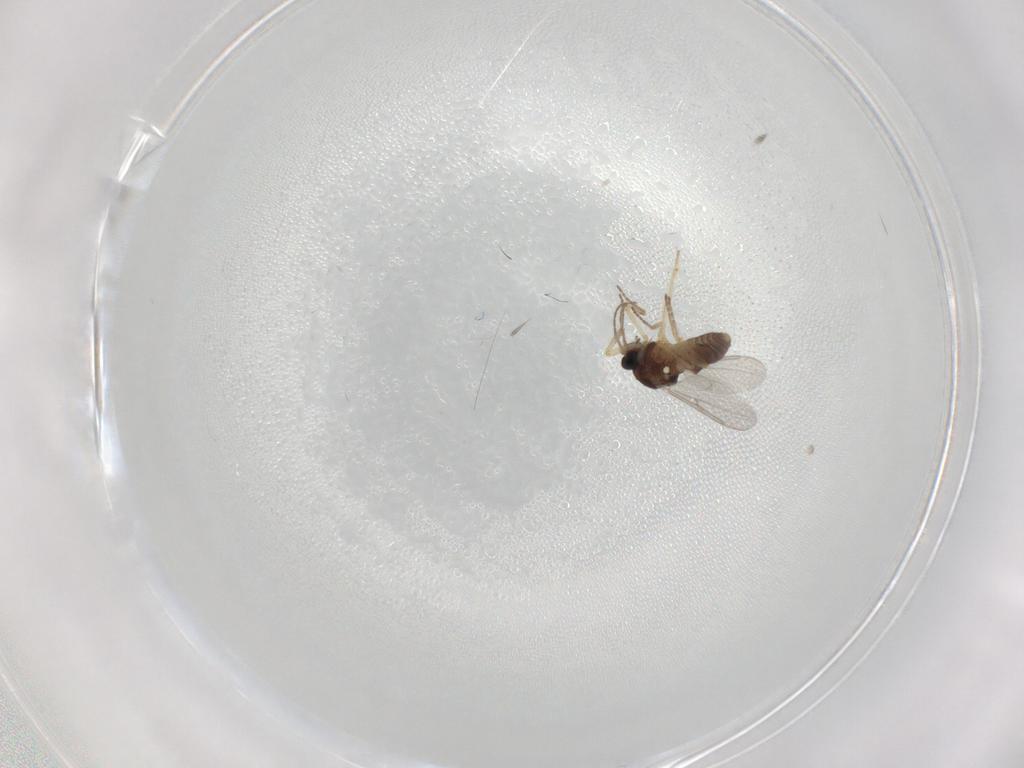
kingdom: Animalia
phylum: Arthropoda
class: Insecta
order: Diptera
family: Ceratopogonidae
